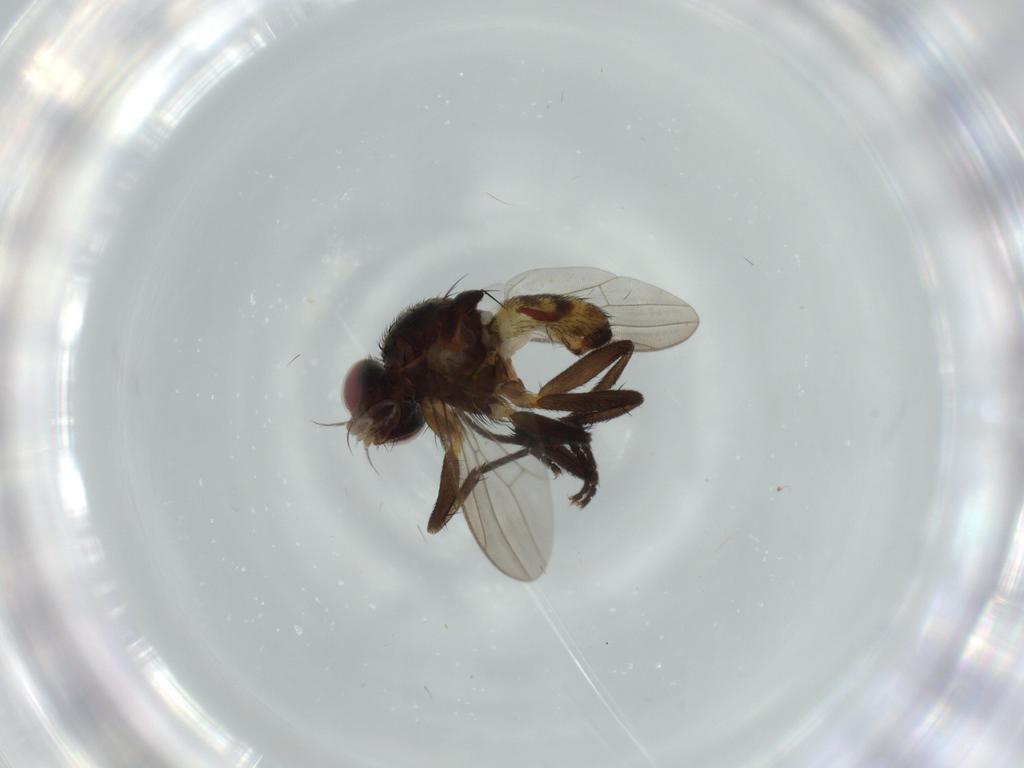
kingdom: Animalia
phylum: Arthropoda
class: Insecta
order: Diptera
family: Anthomyiidae
